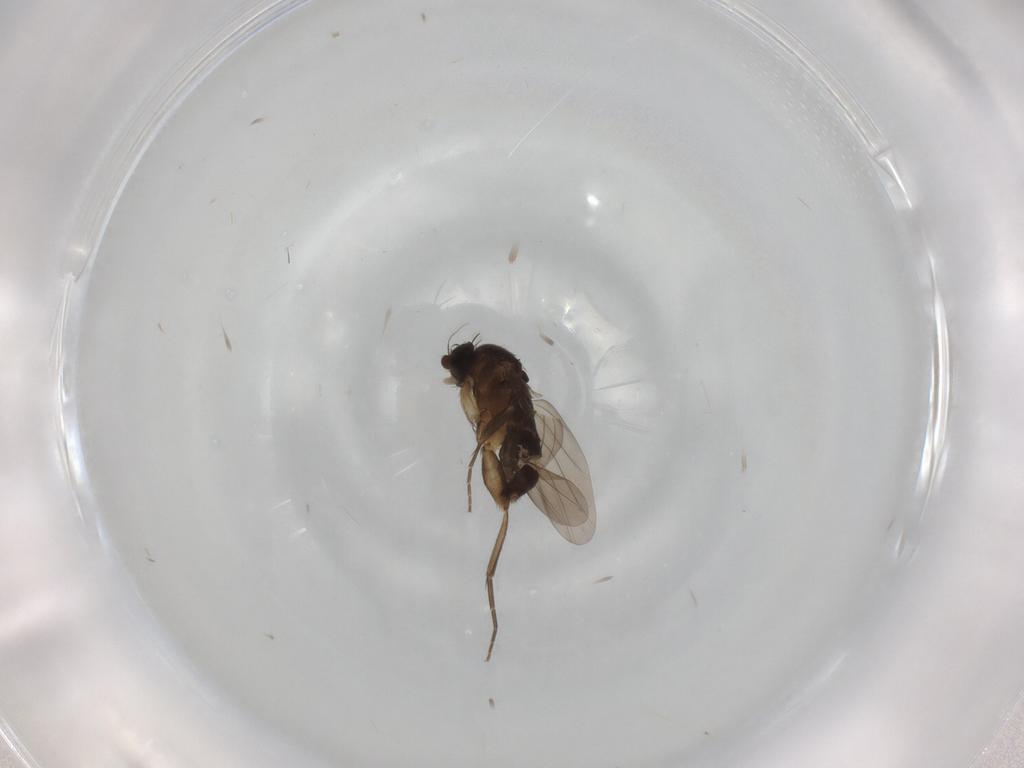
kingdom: Animalia
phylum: Arthropoda
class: Insecta
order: Diptera
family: Phoridae
